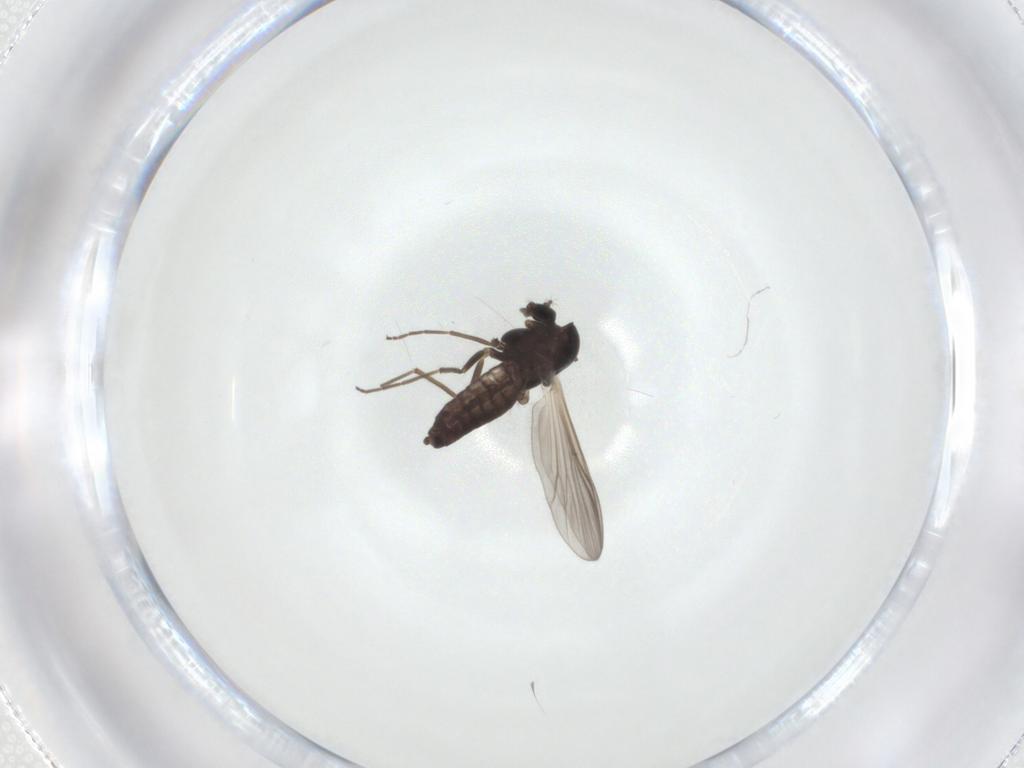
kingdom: Animalia
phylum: Arthropoda
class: Insecta
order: Diptera
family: Chironomidae
